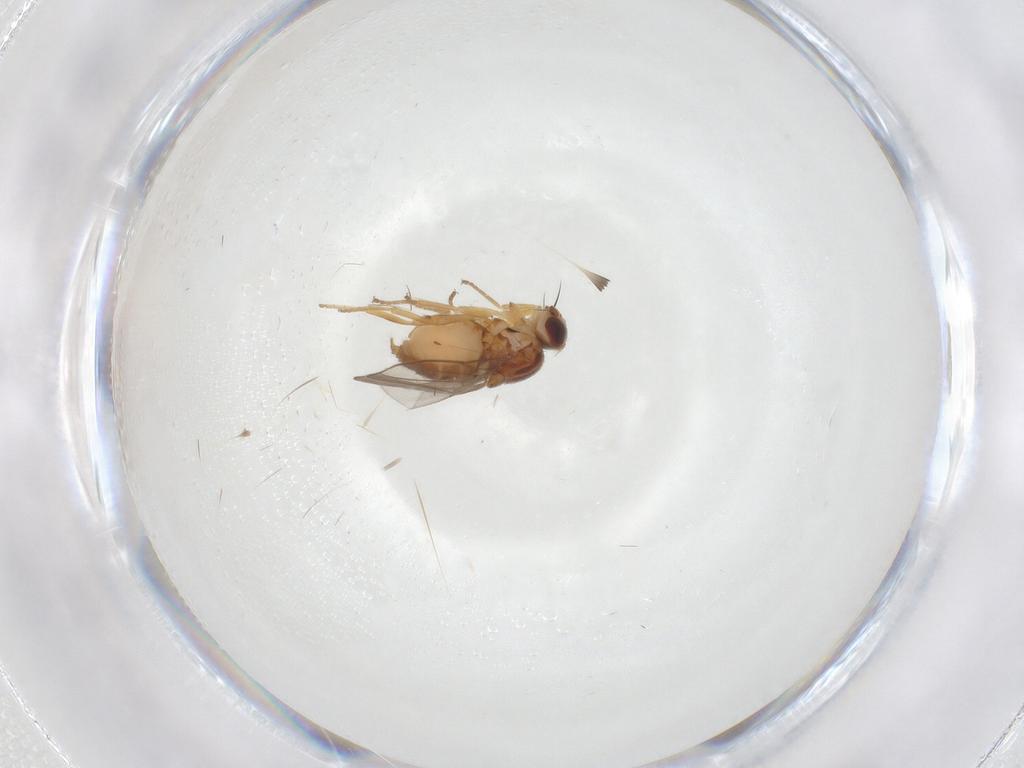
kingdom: Animalia
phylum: Arthropoda
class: Insecta
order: Diptera
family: Chloropidae
